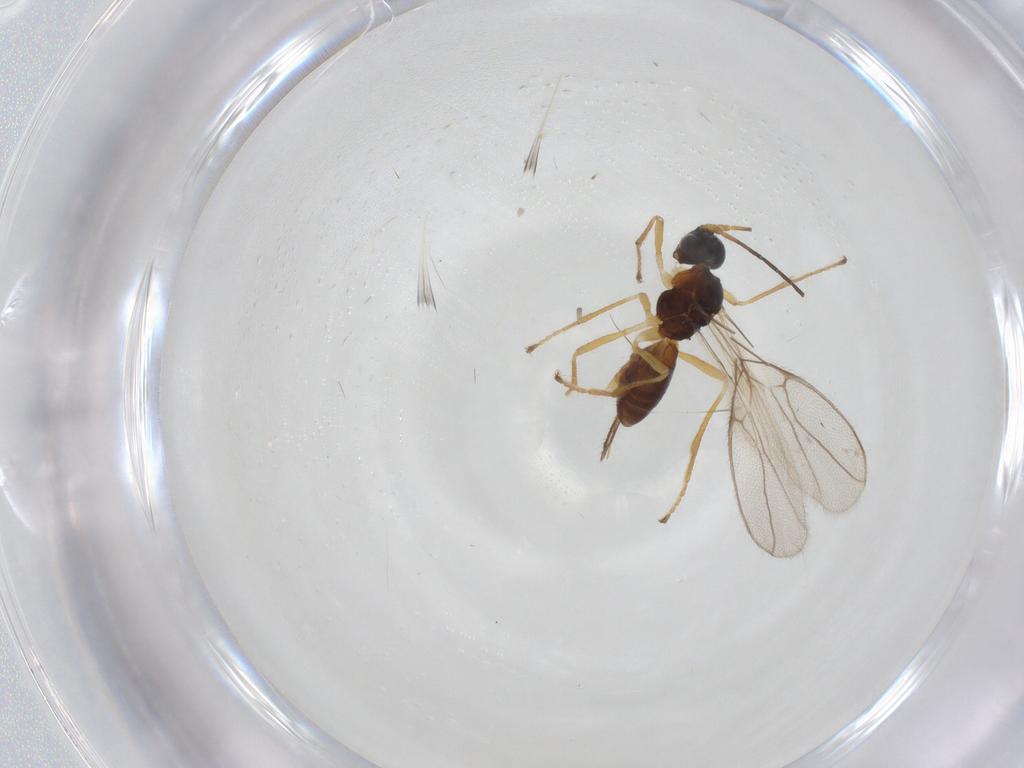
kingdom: Animalia
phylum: Arthropoda
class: Insecta
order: Hymenoptera
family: Braconidae
